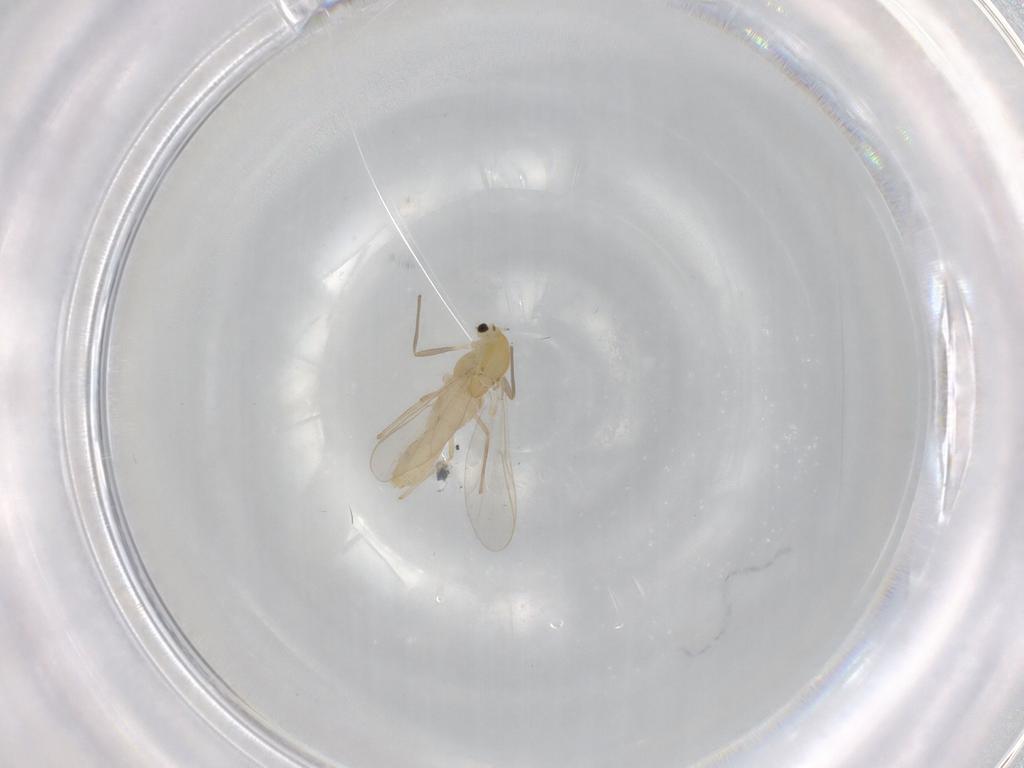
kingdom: Animalia
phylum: Arthropoda
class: Insecta
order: Diptera
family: Chironomidae
